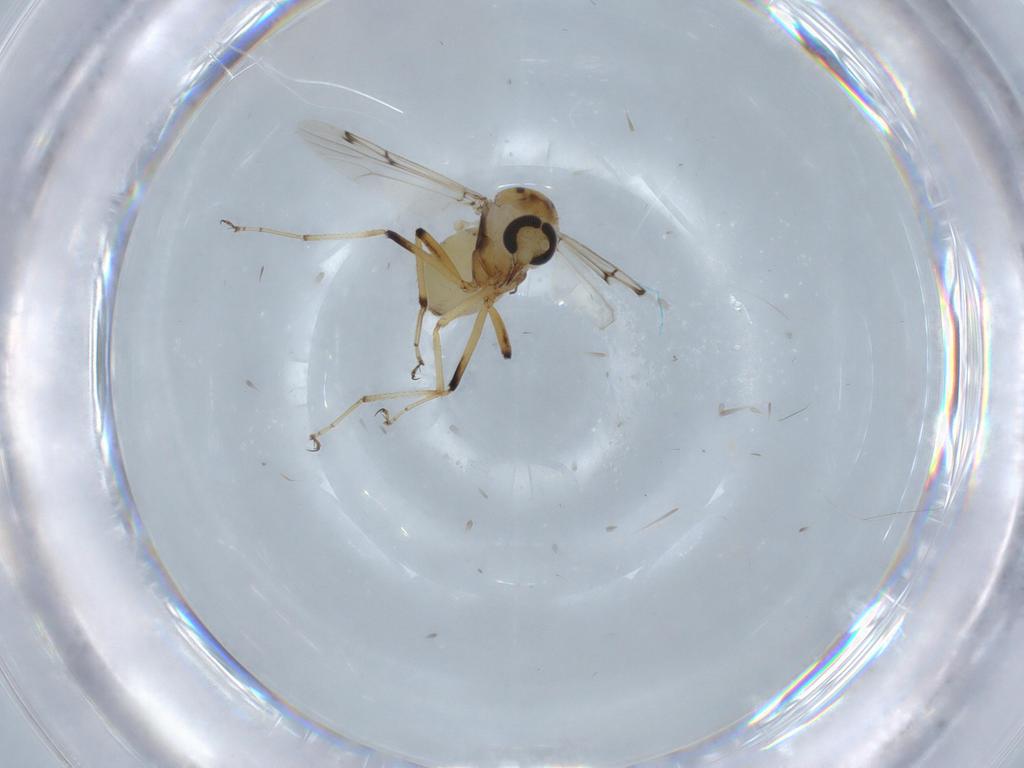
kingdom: Animalia
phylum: Arthropoda
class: Insecta
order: Diptera
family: Ceratopogonidae
